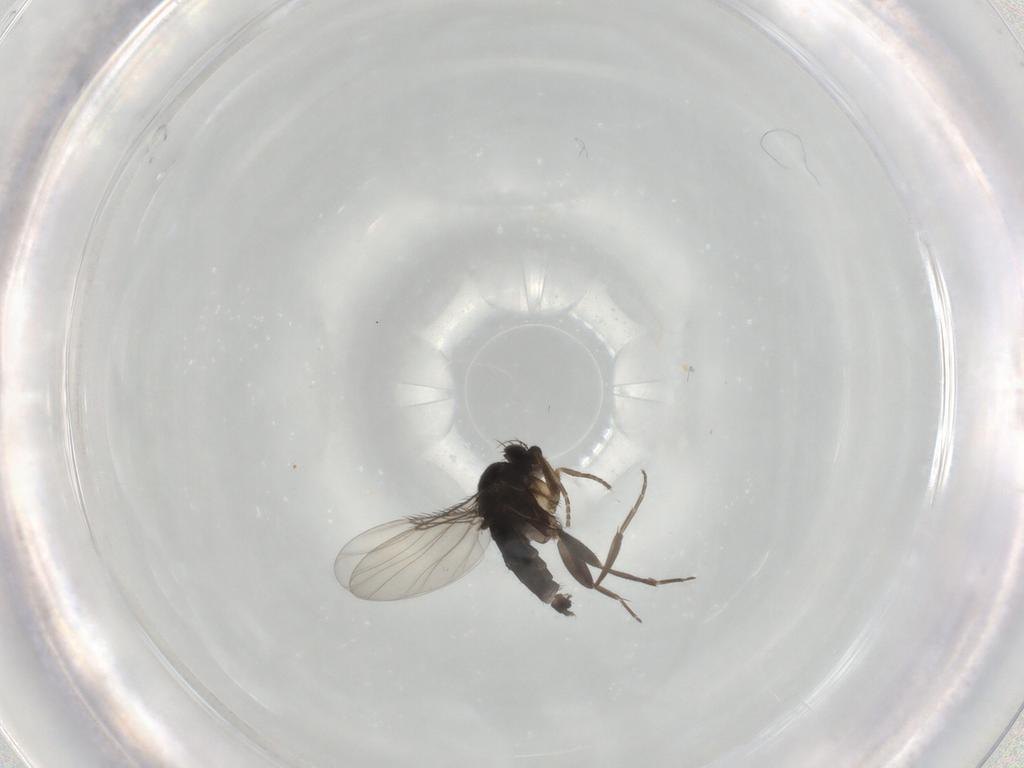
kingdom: Animalia
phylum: Arthropoda
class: Insecta
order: Diptera
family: Phoridae
